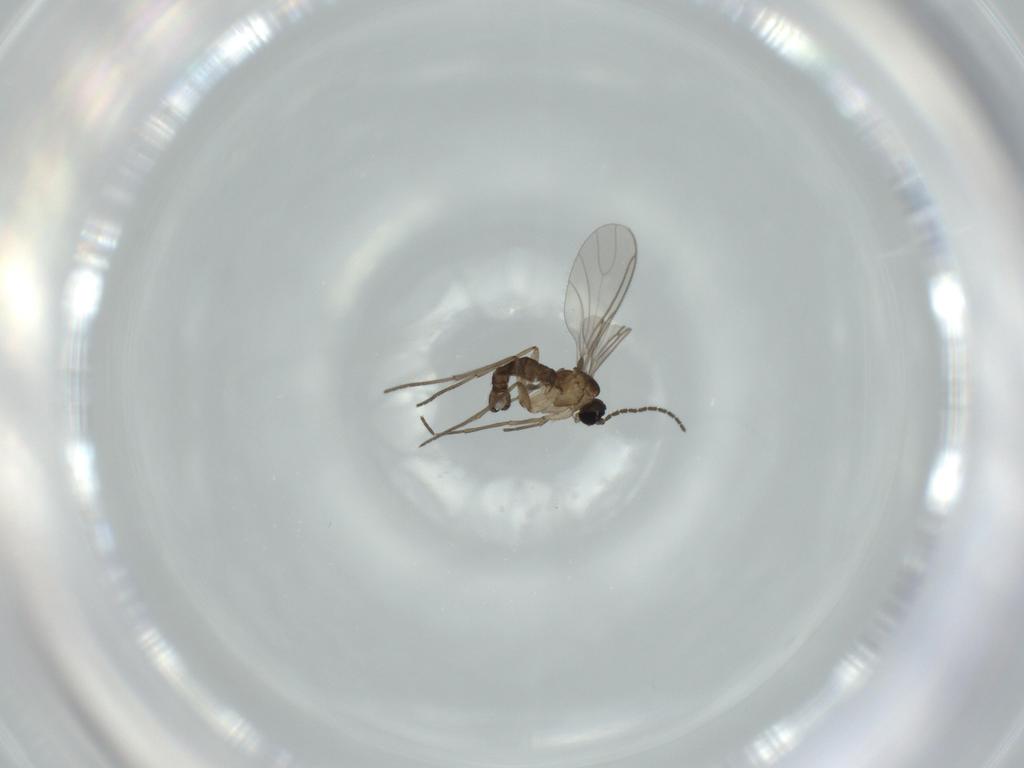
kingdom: Animalia
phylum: Arthropoda
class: Insecta
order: Diptera
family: Sciaridae
